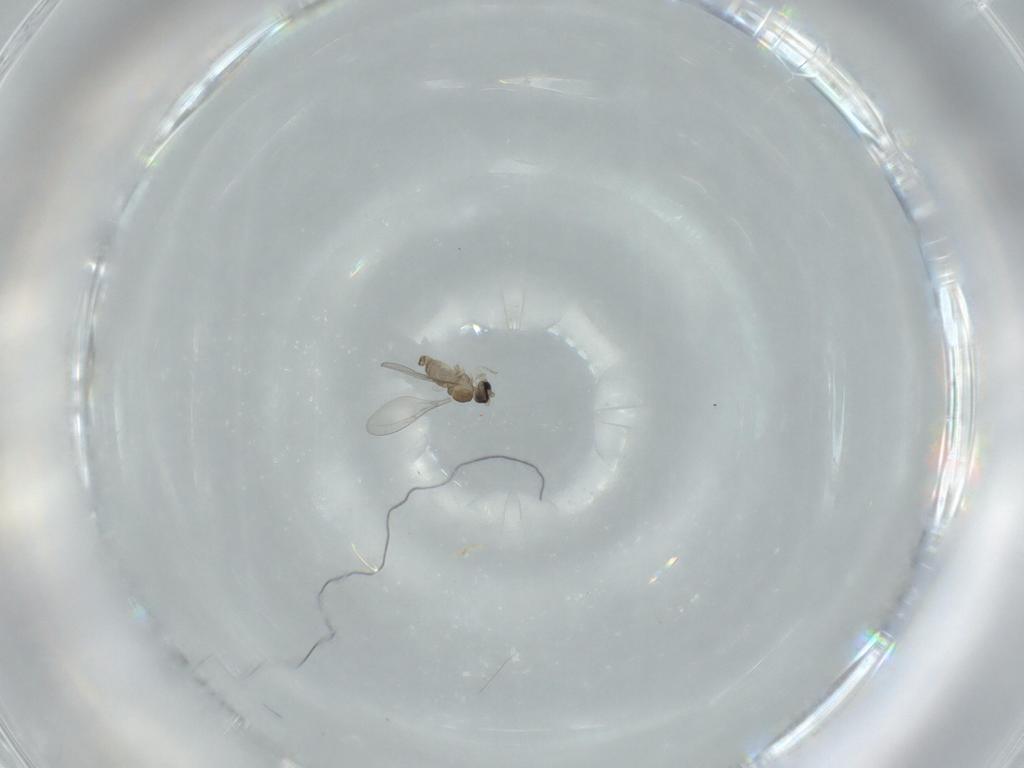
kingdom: Animalia
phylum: Arthropoda
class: Insecta
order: Diptera
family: Cecidomyiidae
